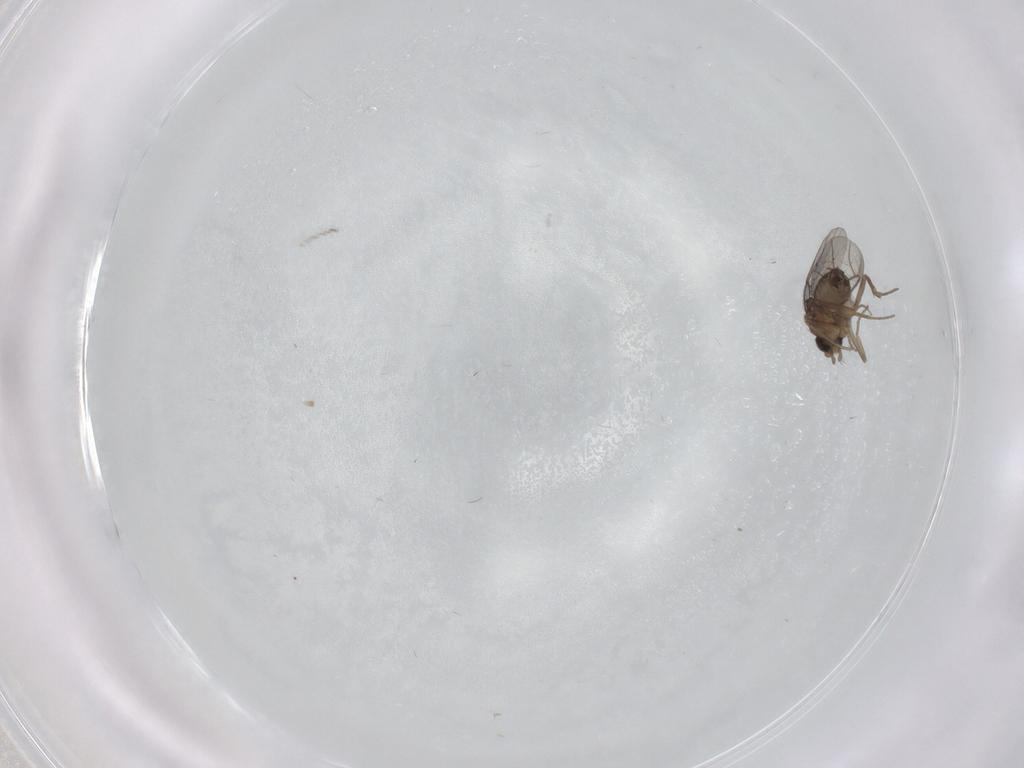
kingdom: Animalia
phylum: Arthropoda
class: Insecta
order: Diptera
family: Phoridae
